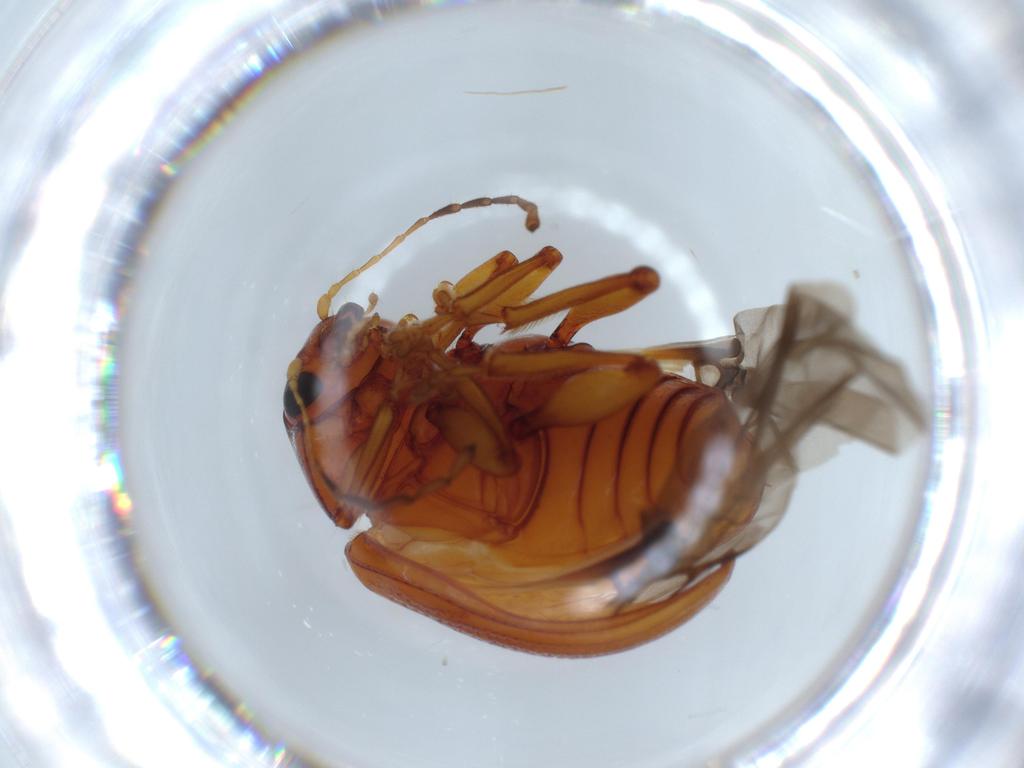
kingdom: Animalia
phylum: Arthropoda
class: Insecta
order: Coleoptera
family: Chrysomelidae
